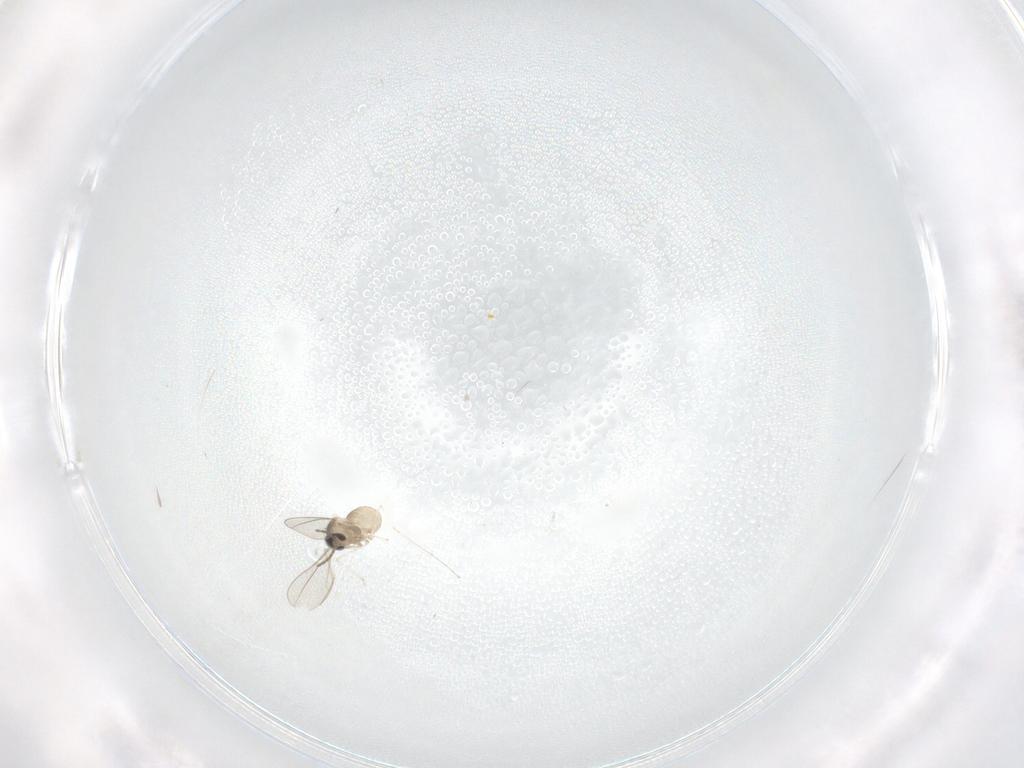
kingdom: Animalia
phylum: Arthropoda
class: Insecta
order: Diptera
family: Cecidomyiidae
